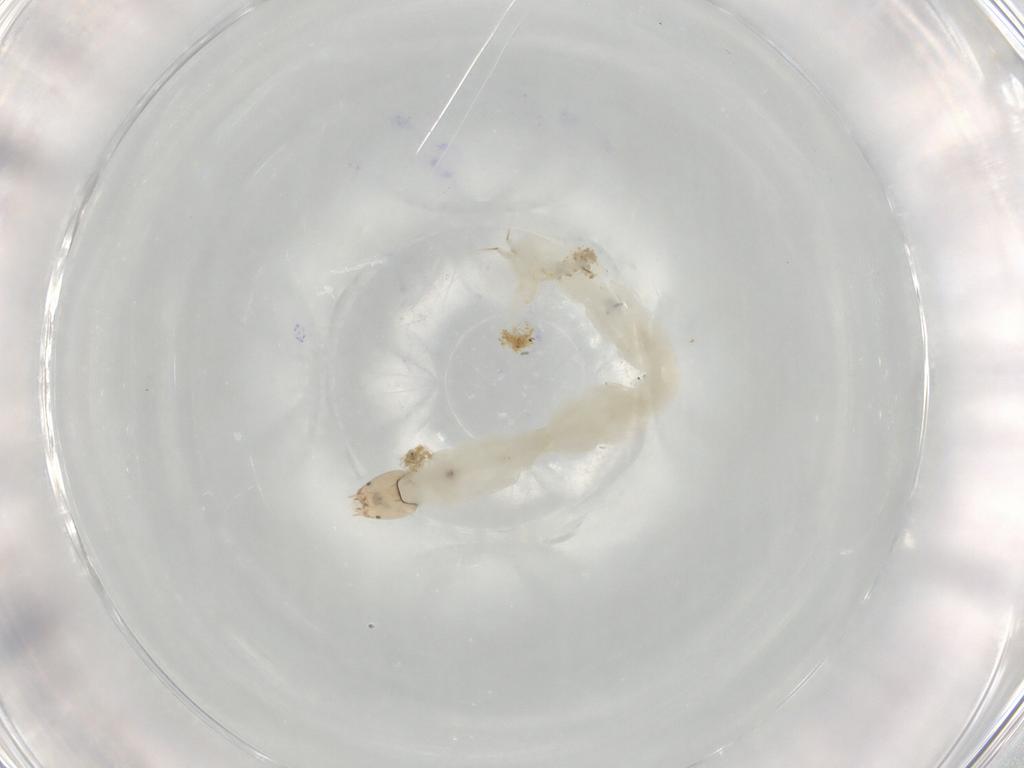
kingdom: Animalia
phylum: Arthropoda
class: Insecta
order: Diptera
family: Chironomidae
